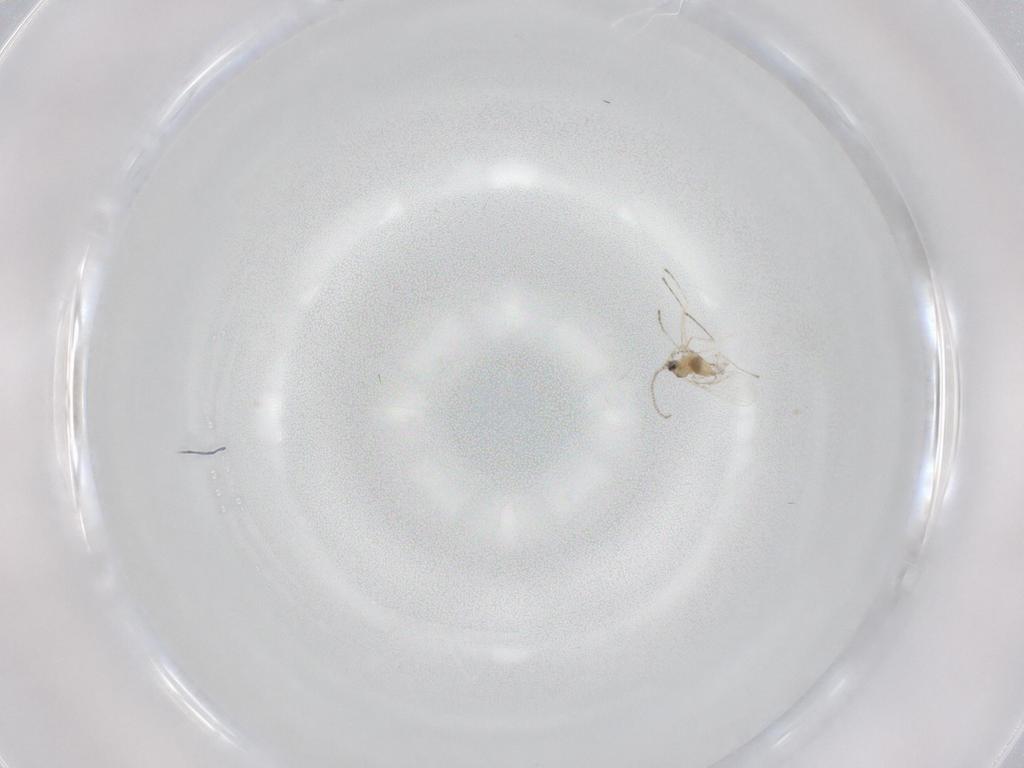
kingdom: Animalia
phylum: Arthropoda
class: Insecta
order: Diptera
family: Cecidomyiidae
